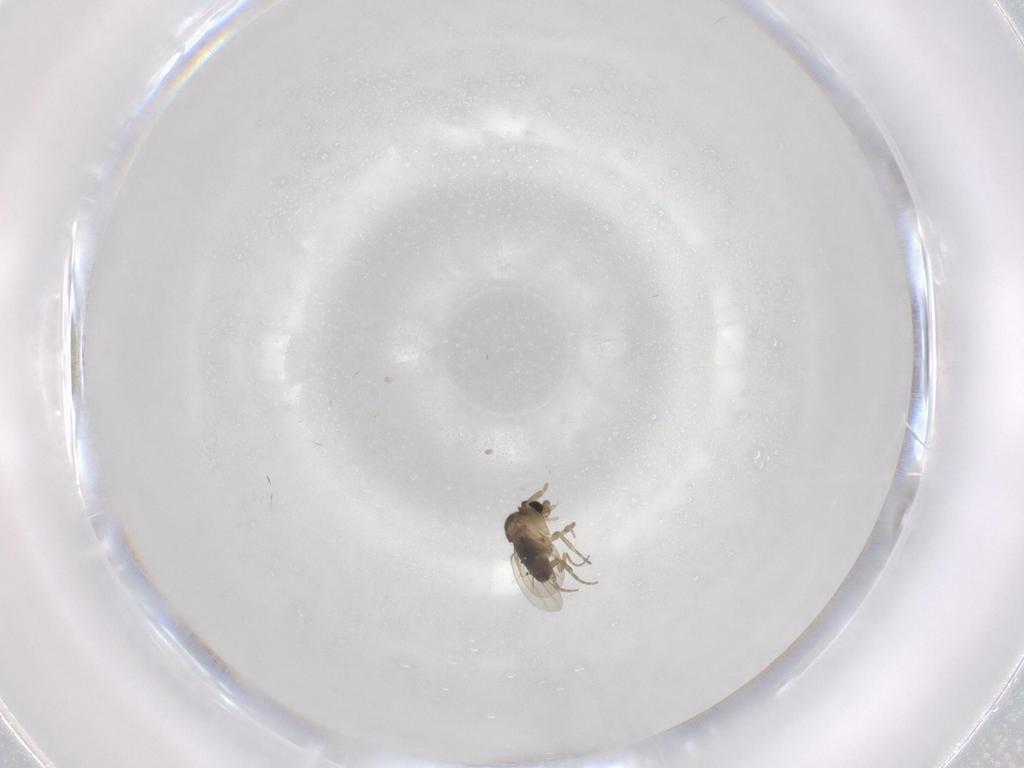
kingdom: Animalia
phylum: Arthropoda
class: Insecta
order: Diptera
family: Phoridae
